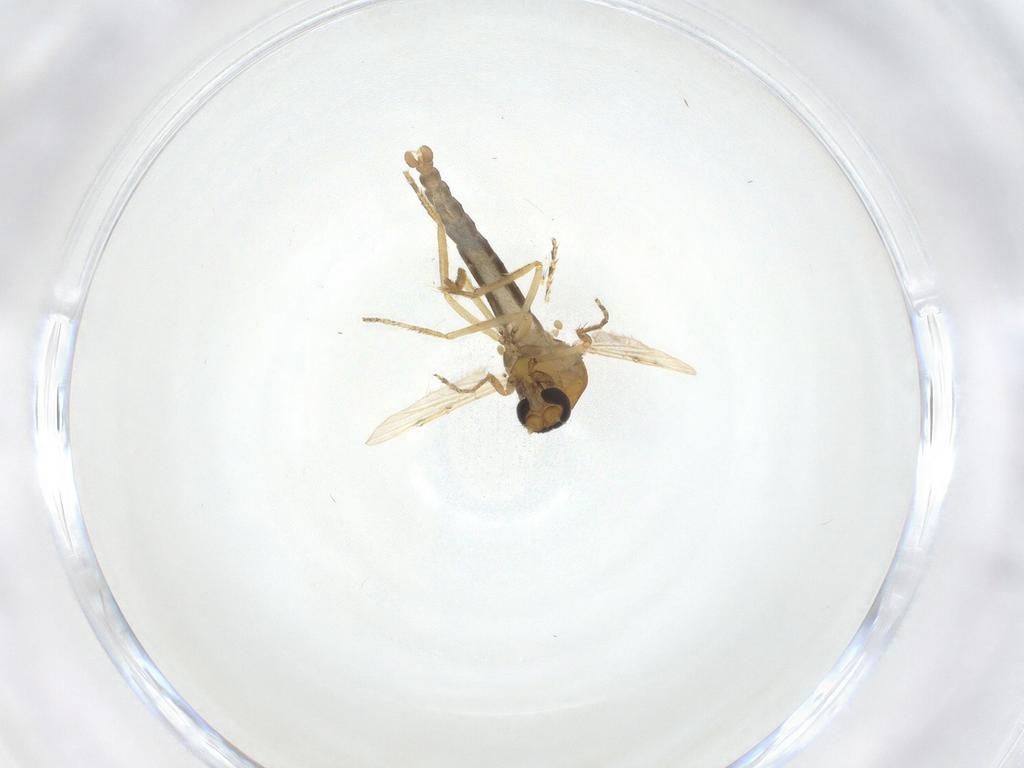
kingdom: Animalia
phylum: Arthropoda
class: Insecta
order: Diptera
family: Ceratopogonidae
